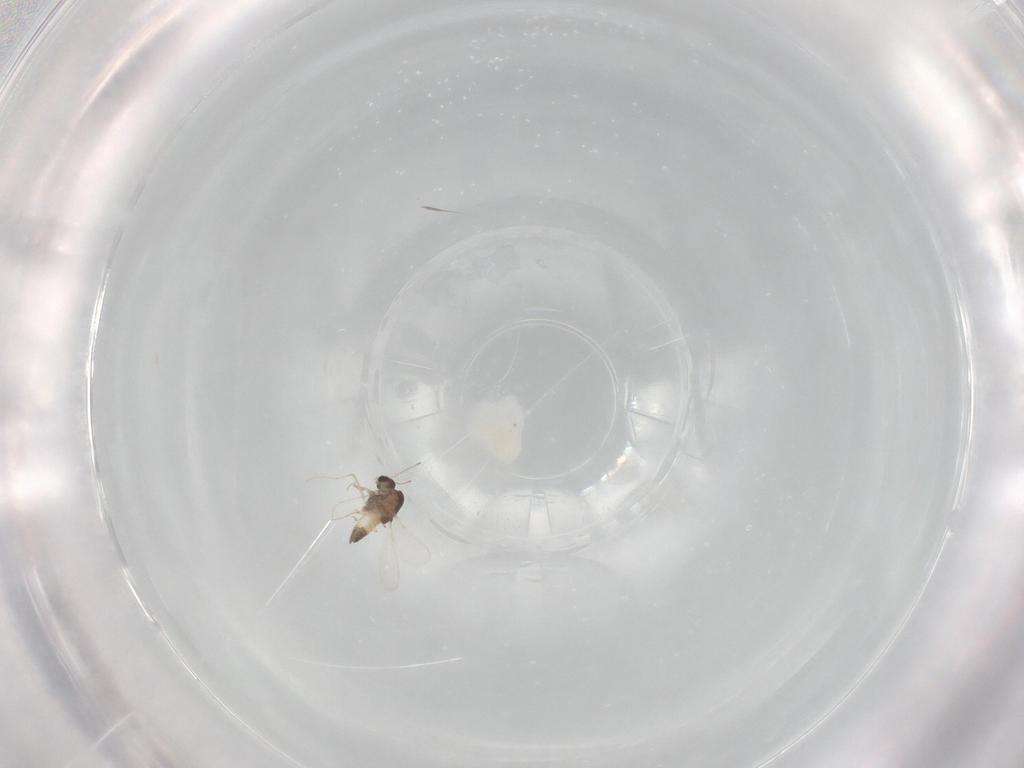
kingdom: Animalia
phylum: Arthropoda
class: Insecta
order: Diptera
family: Chironomidae
